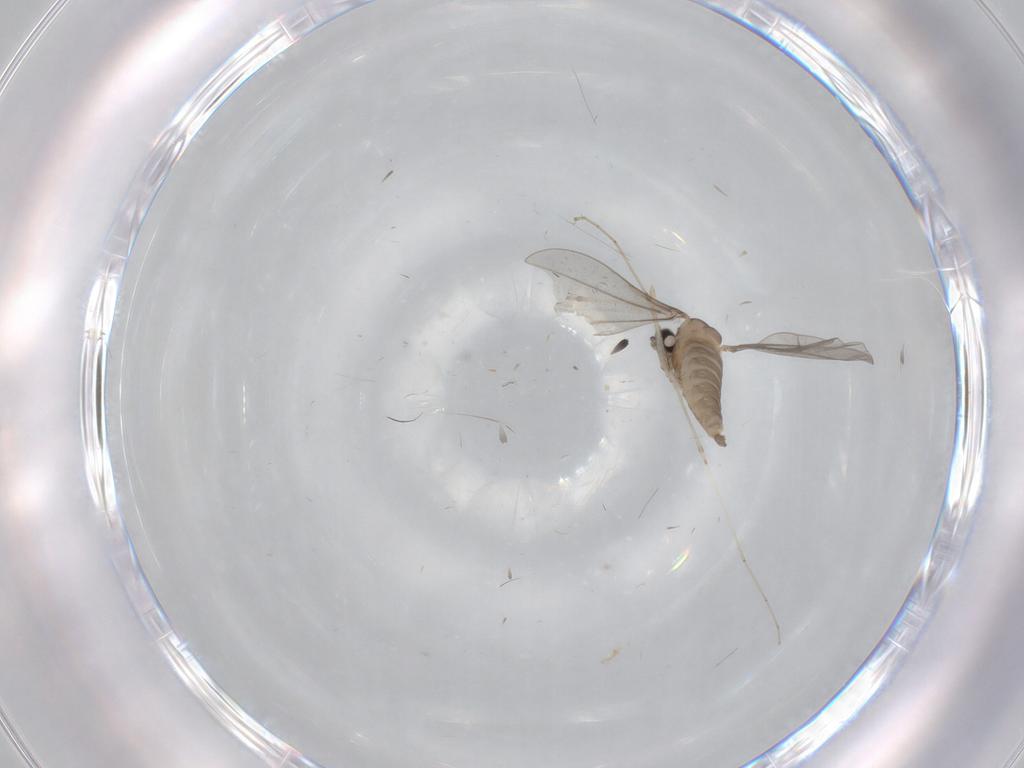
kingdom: Animalia
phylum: Arthropoda
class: Insecta
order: Diptera
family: Cecidomyiidae
